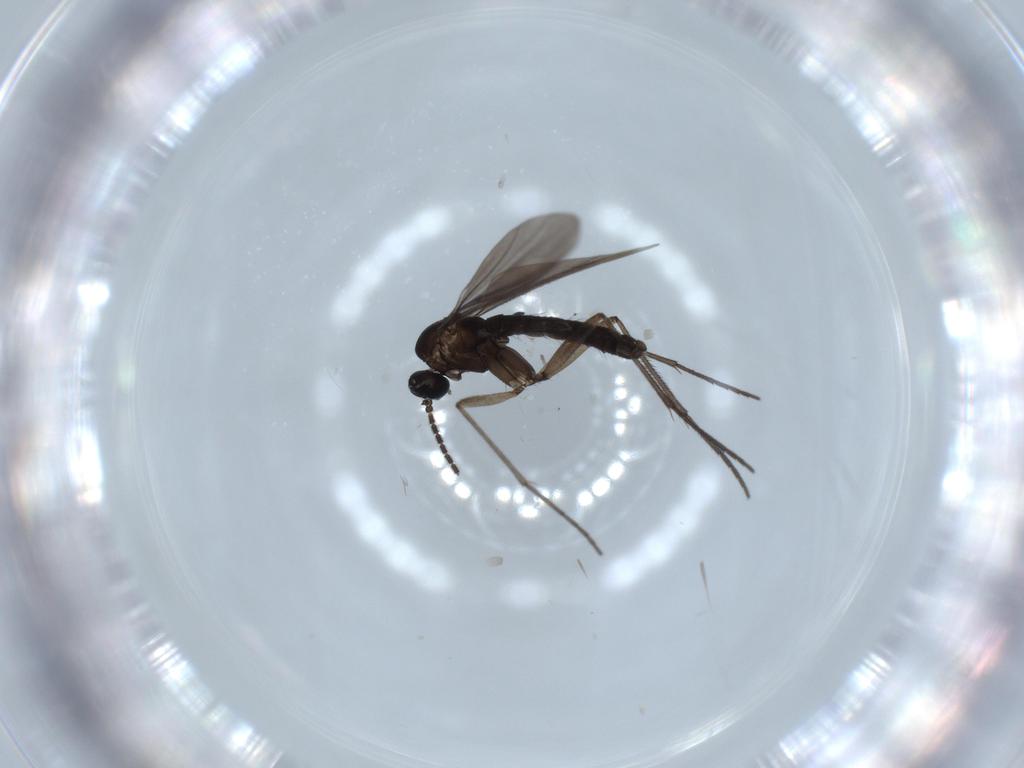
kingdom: Animalia
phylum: Arthropoda
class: Insecta
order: Diptera
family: Sciaridae
